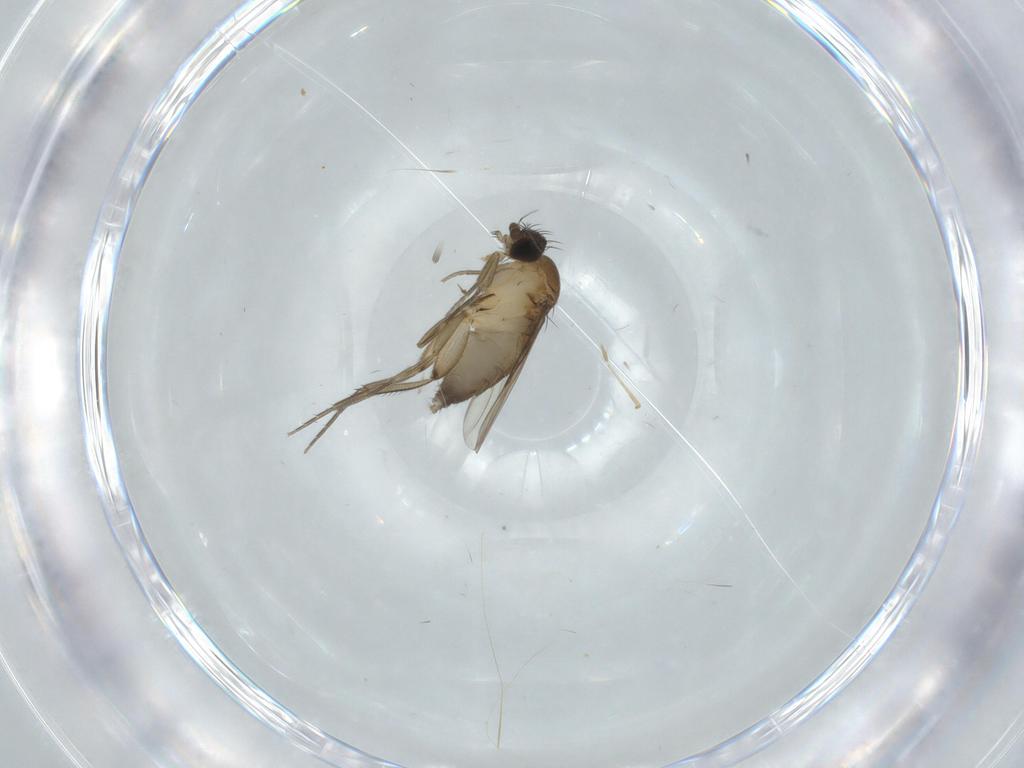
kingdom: Animalia
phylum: Arthropoda
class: Insecta
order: Diptera
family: Phoridae
